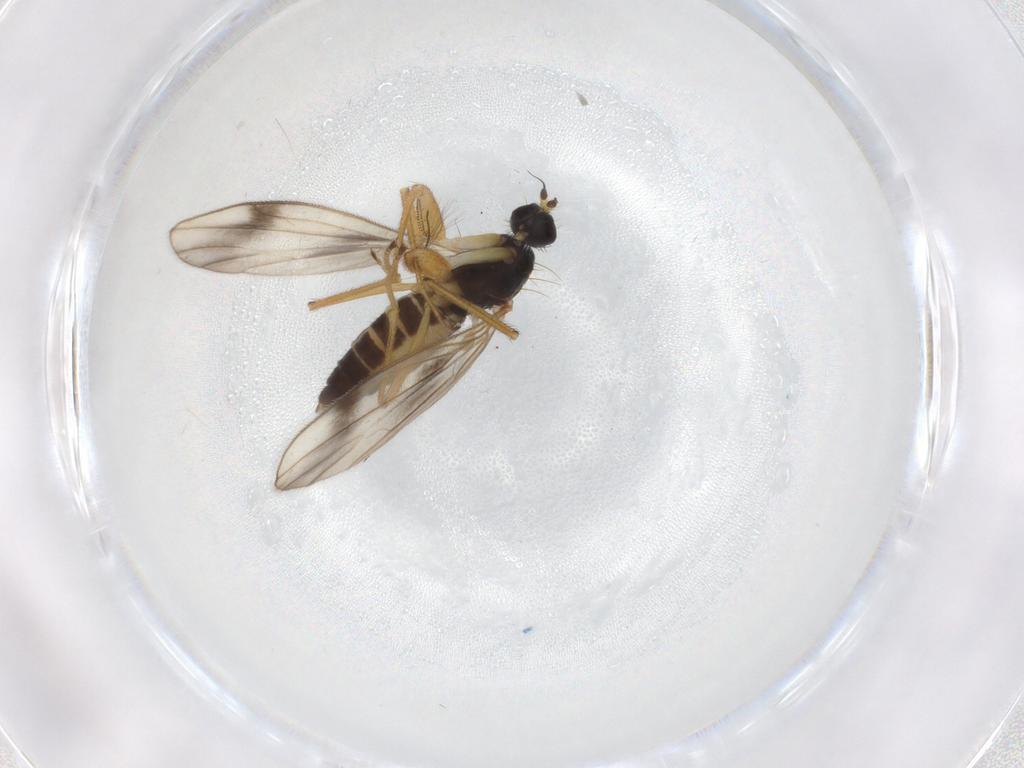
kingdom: Animalia
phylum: Arthropoda
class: Insecta
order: Diptera
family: Empididae
